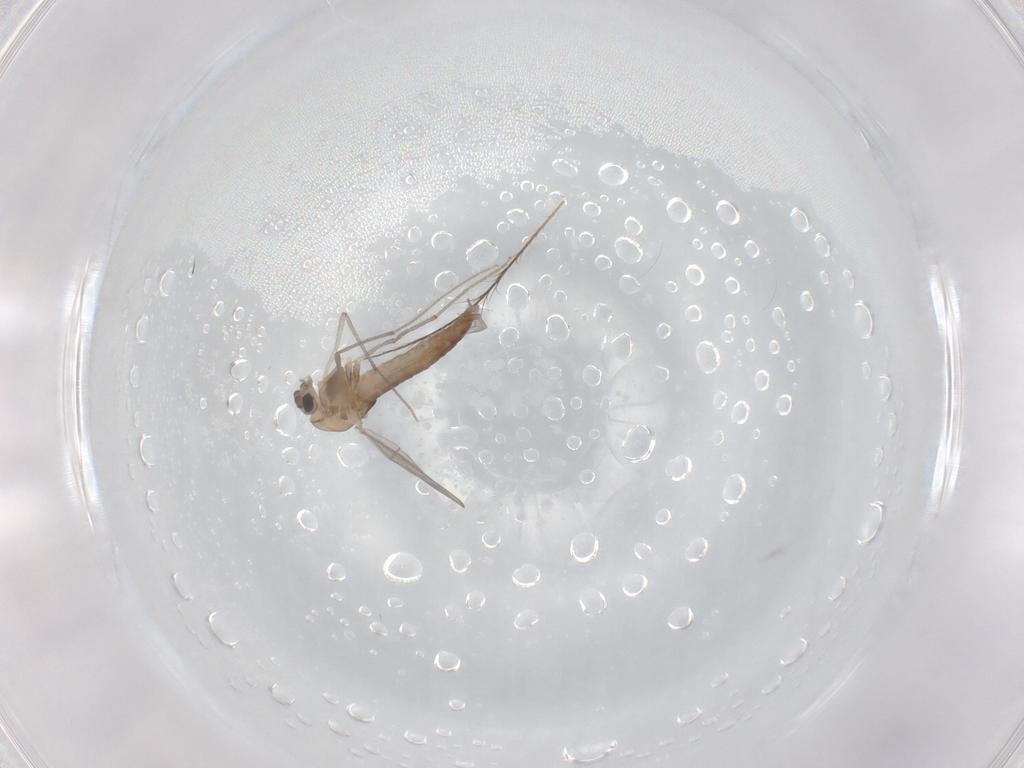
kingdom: Animalia
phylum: Arthropoda
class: Insecta
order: Diptera
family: Chironomidae
